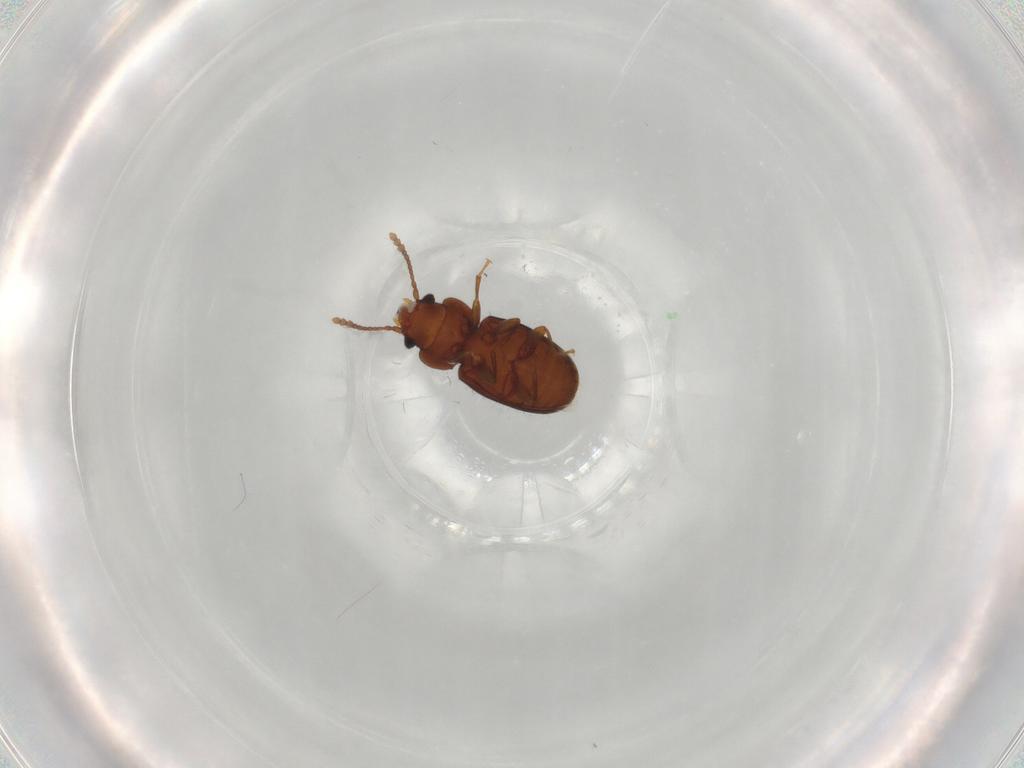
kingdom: Animalia
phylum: Arthropoda
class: Insecta
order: Coleoptera
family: Laemophloeidae
